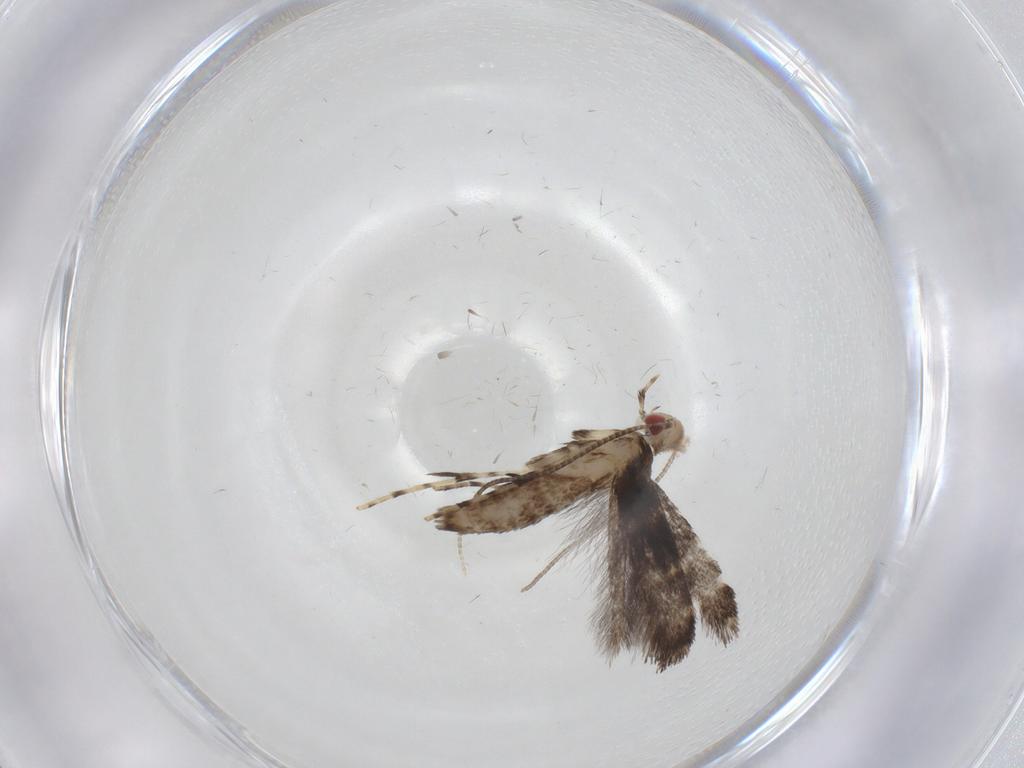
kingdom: Animalia
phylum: Arthropoda
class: Insecta
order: Lepidoptera
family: Gracillariidae
